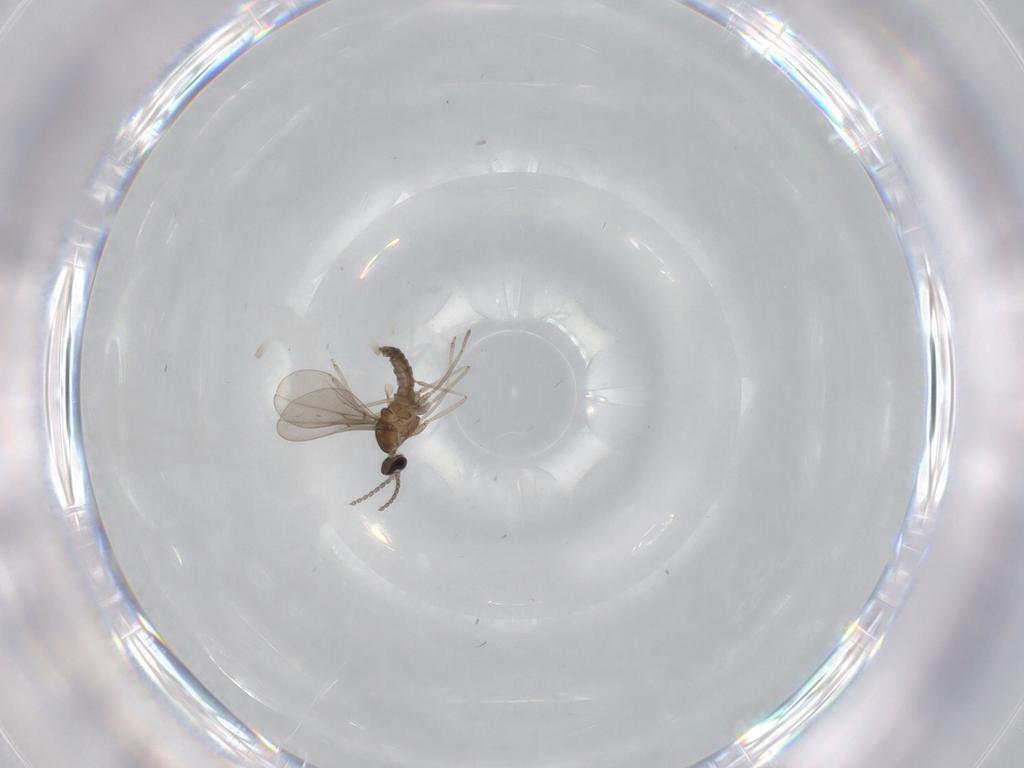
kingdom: Animalia
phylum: Arthropoda
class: Insecta
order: Diptera
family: Cecidomyiidae
